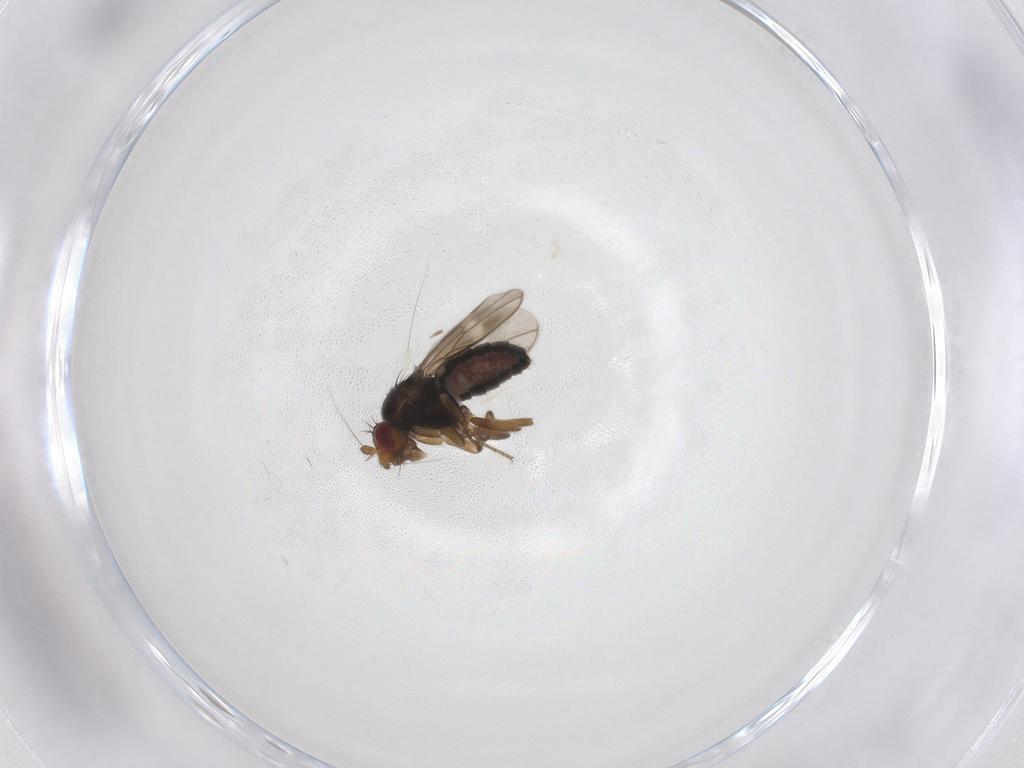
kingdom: Animalia
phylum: Arthropoda
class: Insecta
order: Diptera
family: Sphaeroceridae
